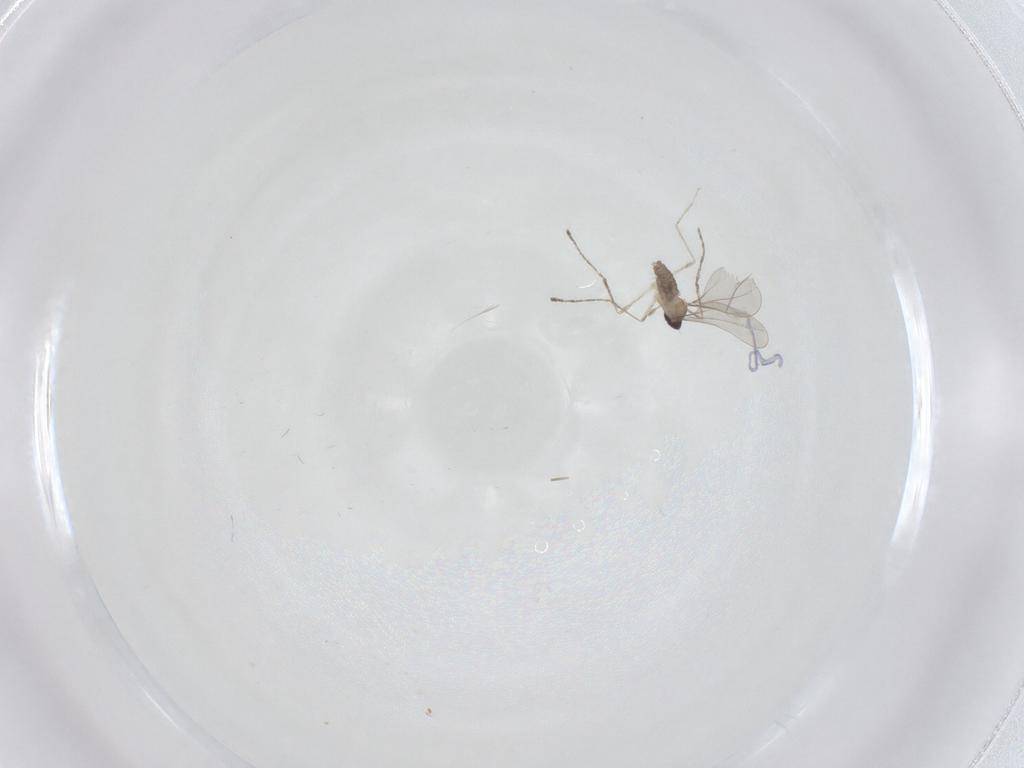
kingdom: Animalia
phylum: Arthropoda
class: Insecta
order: Diptera
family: Cecidomyiidae
